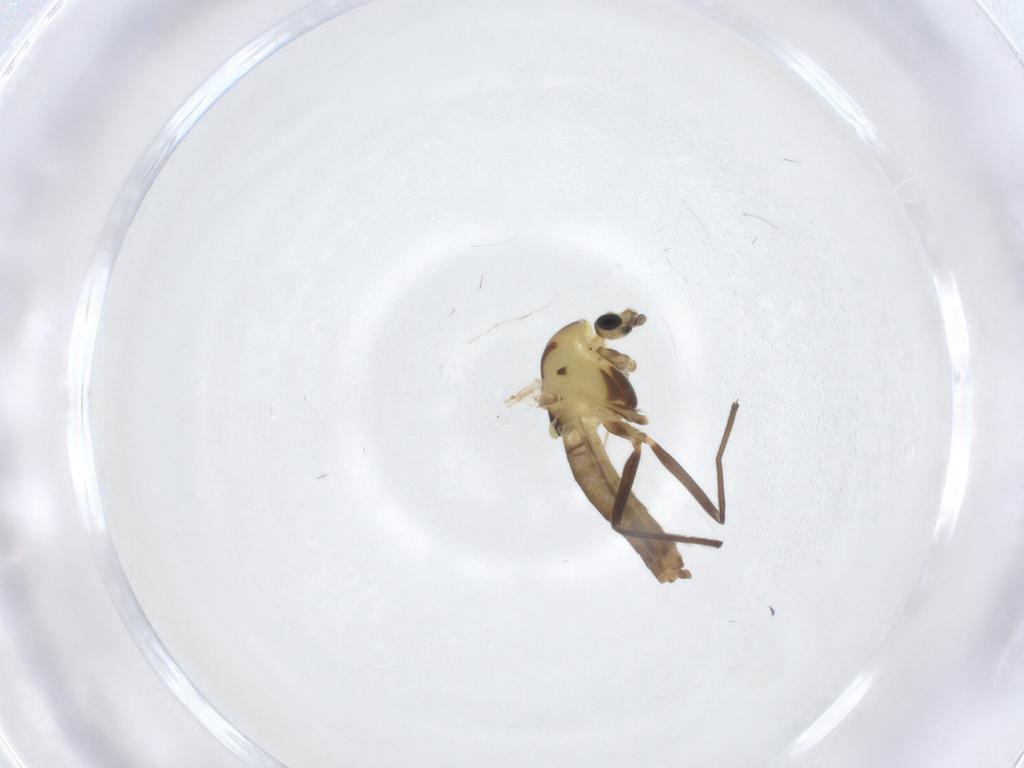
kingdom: Animalia
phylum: Arthropoda
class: Insecta
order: Diptera
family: Chironomidae
